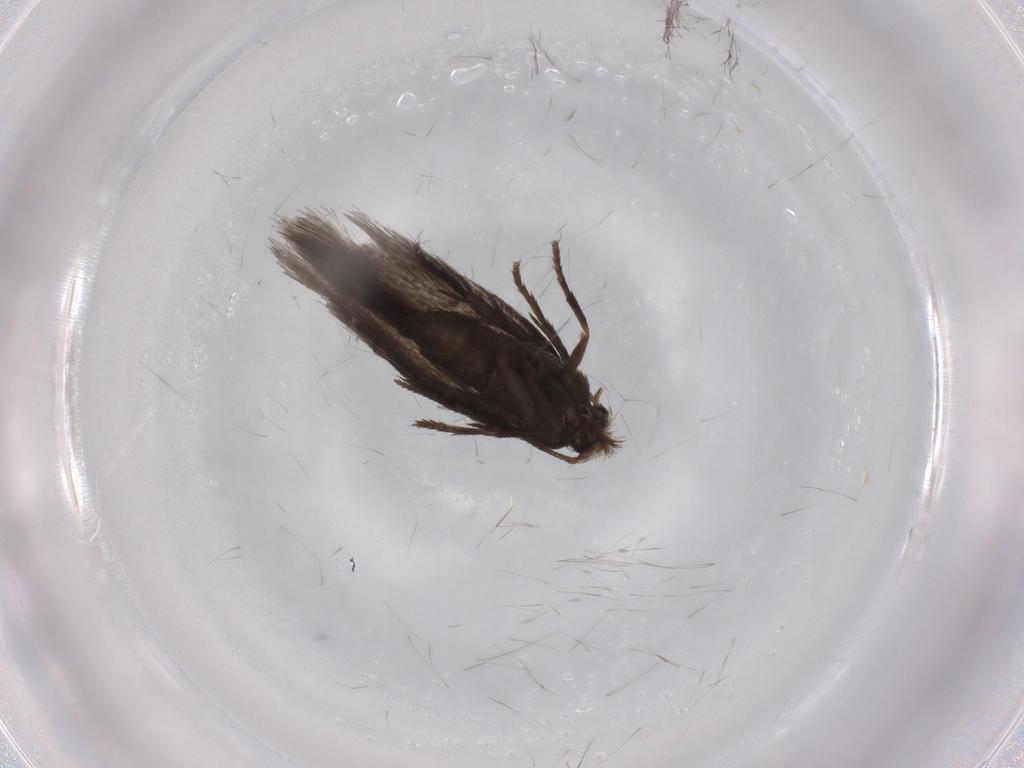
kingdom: Animalia
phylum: Arthropoda
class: Insecta
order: Lepidoptera
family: Nepticulidae
